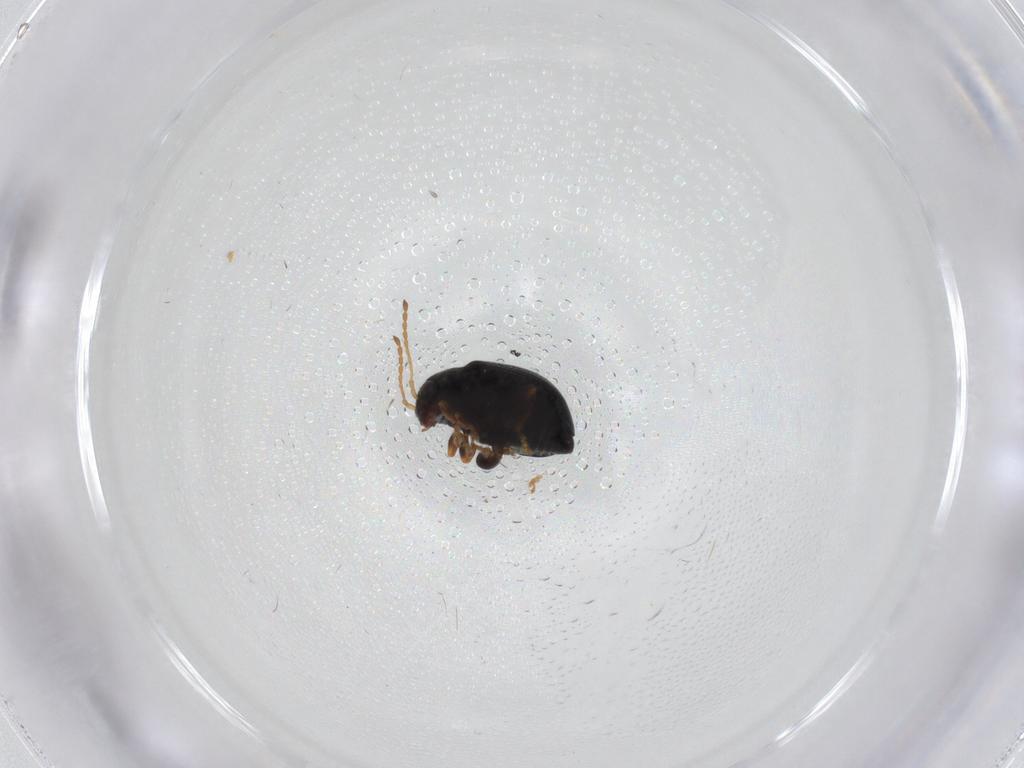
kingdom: Animalia
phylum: Arthropoda
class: Insecta
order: Coleoptera
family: Chrysomelidae
